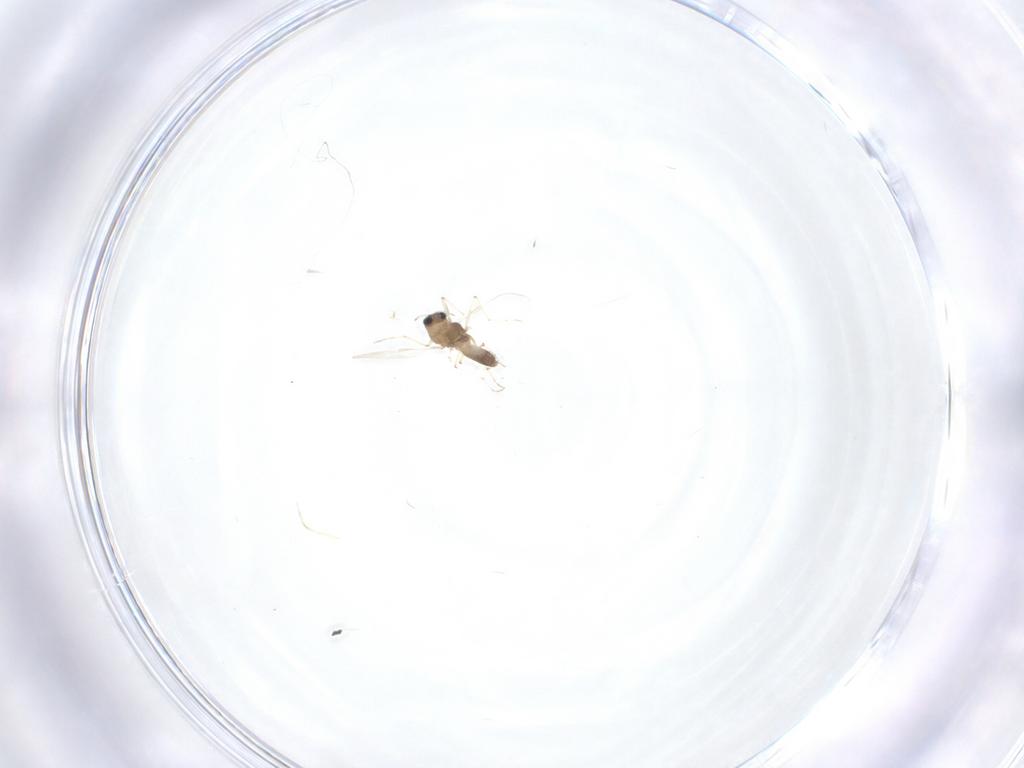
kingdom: Animalia
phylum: Arthropoda
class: Insecta
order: Diptera
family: Chironomidae
